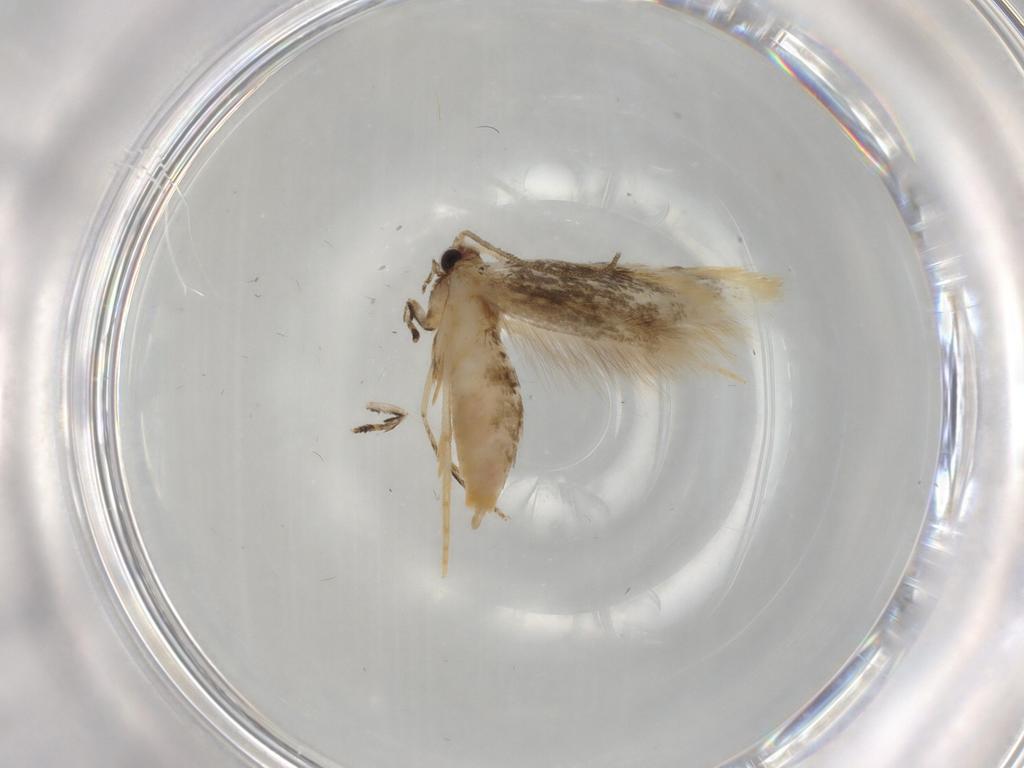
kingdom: Animalia
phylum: Arthropoda
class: Insecta
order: Lepidoptera
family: Tineidae
